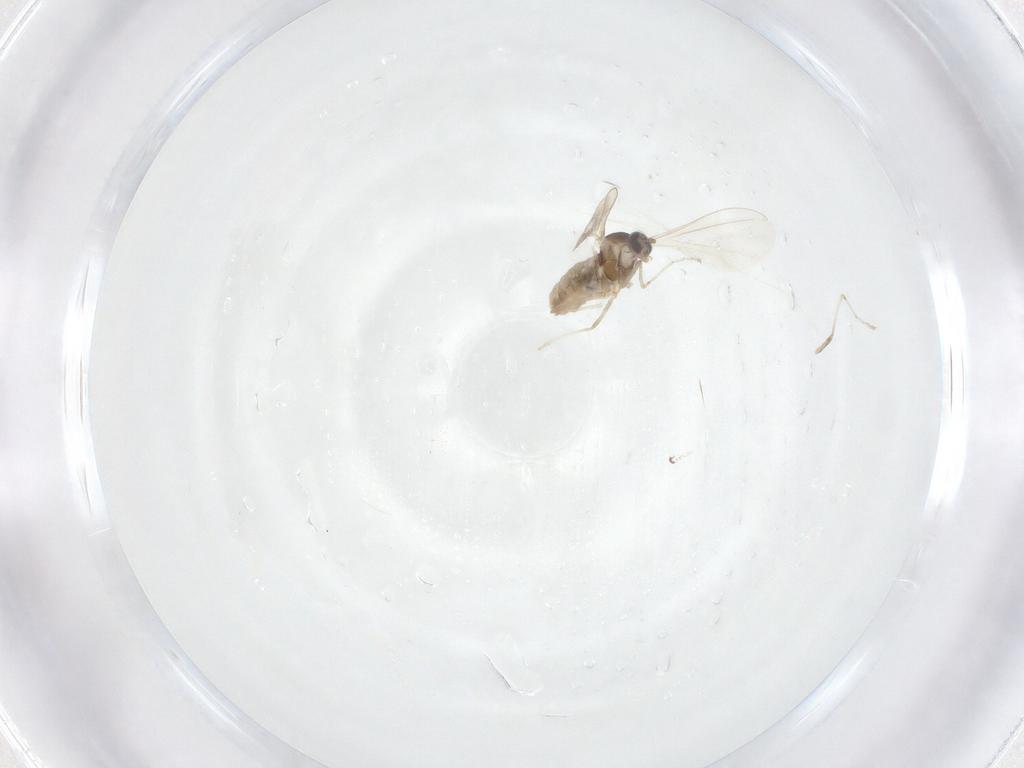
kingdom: Animalia
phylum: Arthropoda
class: Insecta
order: Diptera
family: Cecidomyiidae
